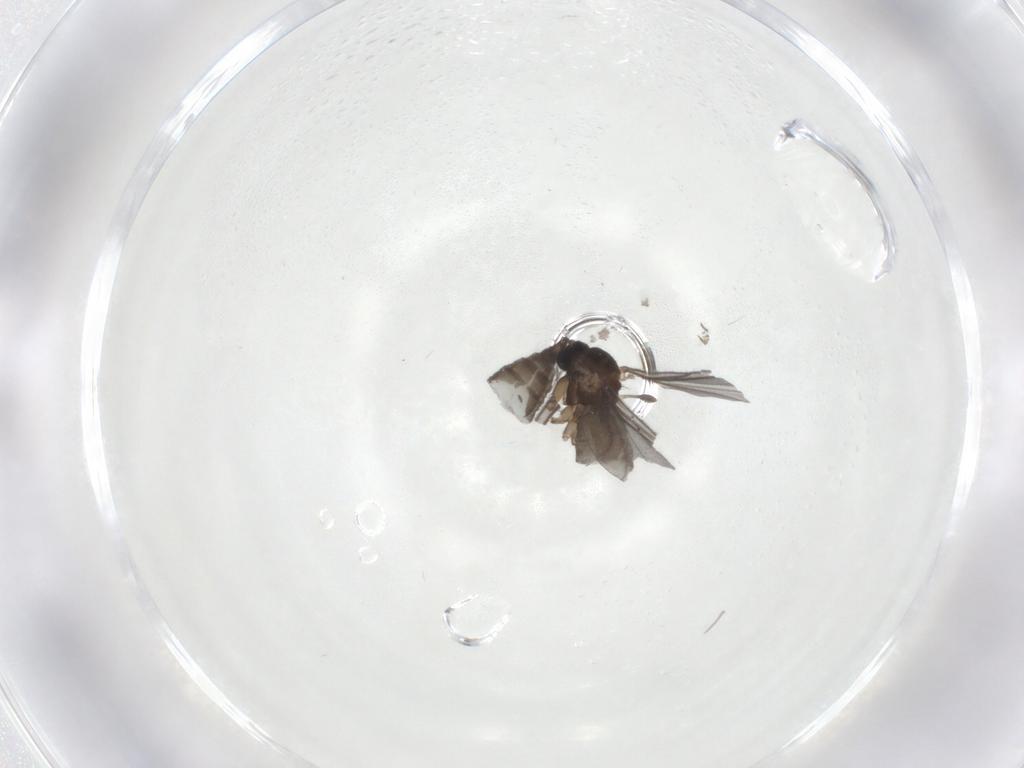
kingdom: Animalia
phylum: Arthropoda
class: Insecta
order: Diptera
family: Sciaridae
